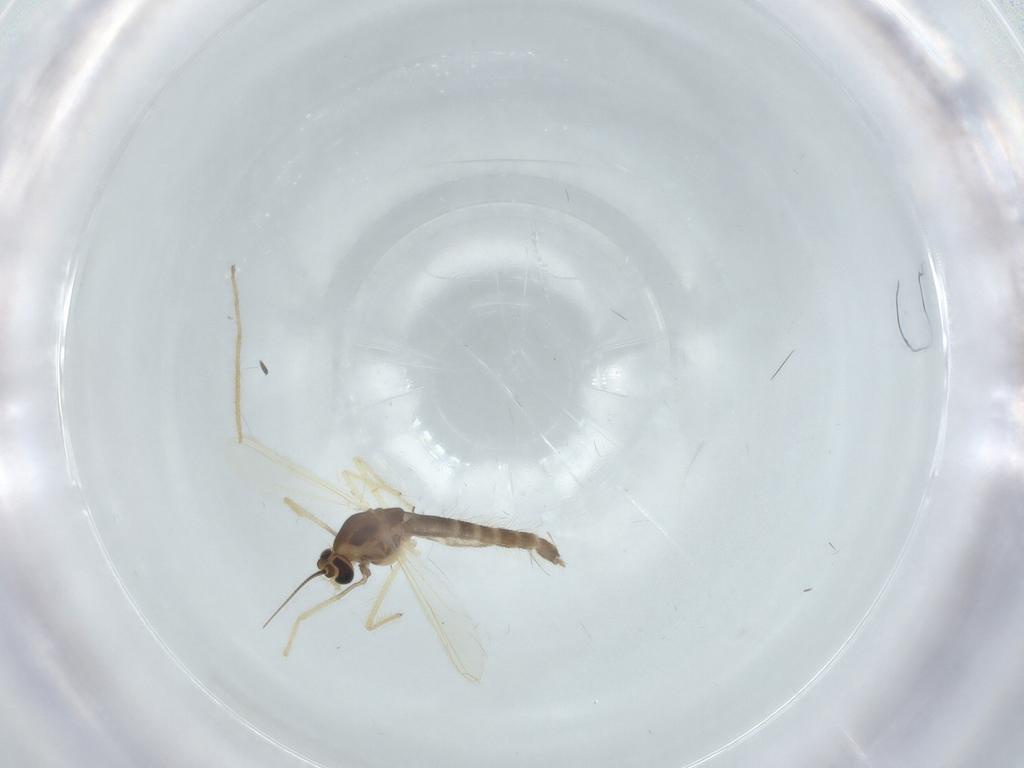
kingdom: Animalia
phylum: Arthropoda
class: Insecta
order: Diptera
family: Chironomidae
